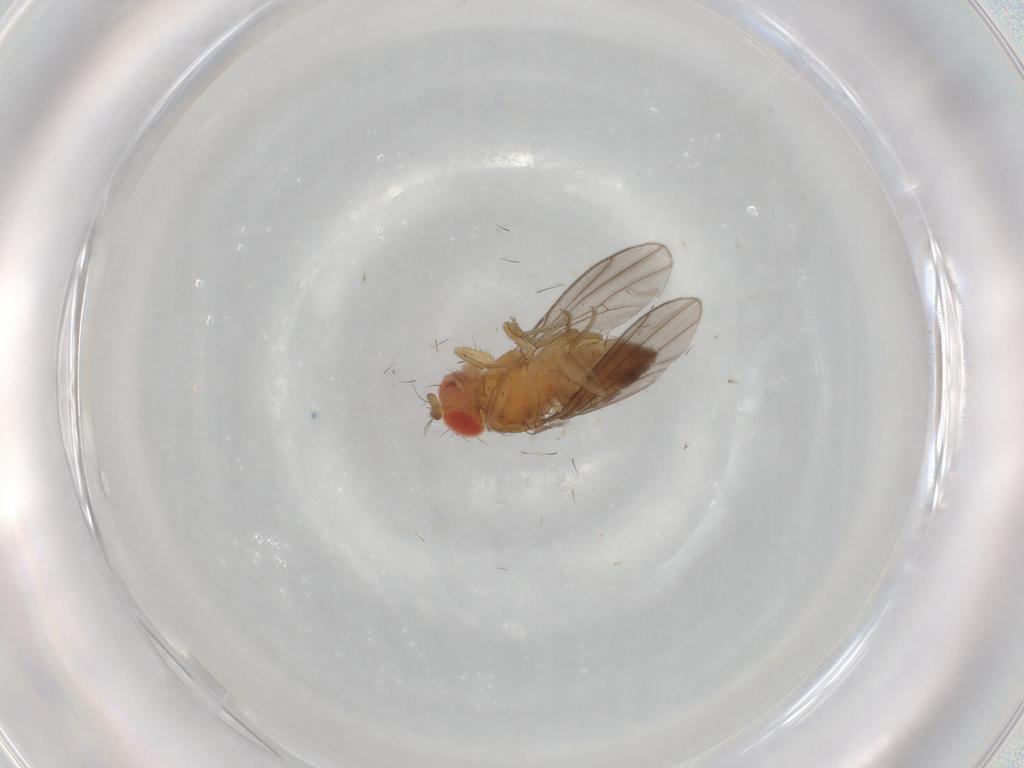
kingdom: Animalia
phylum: Arthropoda
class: Insecta
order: Diptera
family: Drosophilidae
